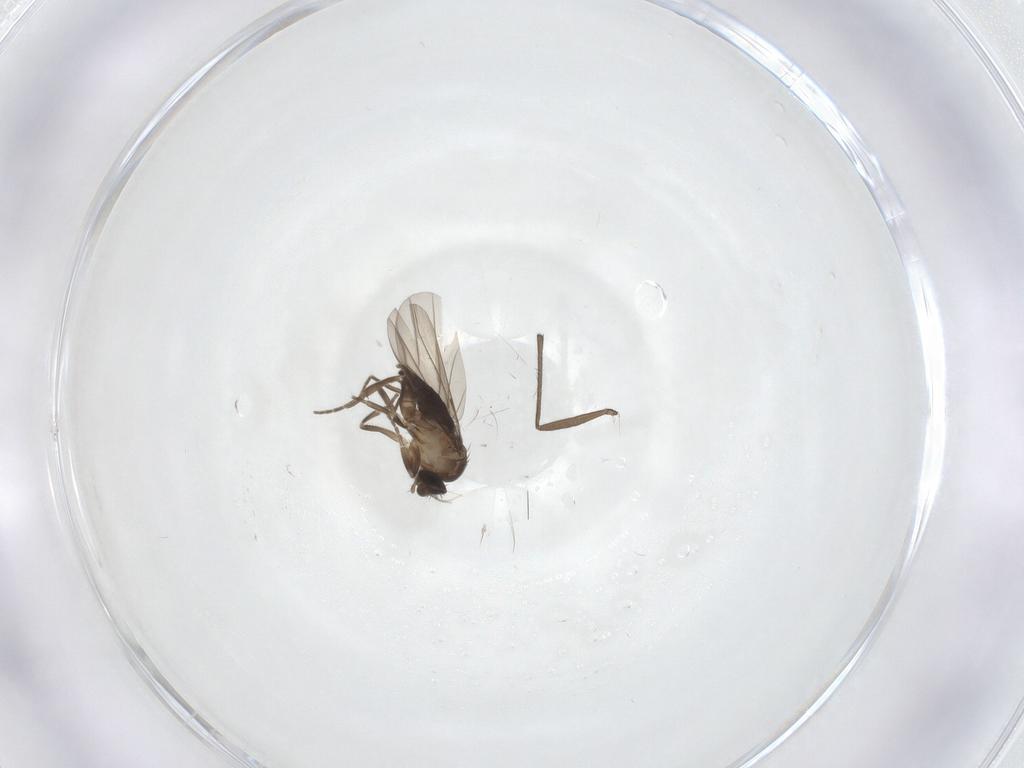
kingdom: Animalia
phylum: Arthropoda
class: Insecta
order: Diptera
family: Sciaridae
